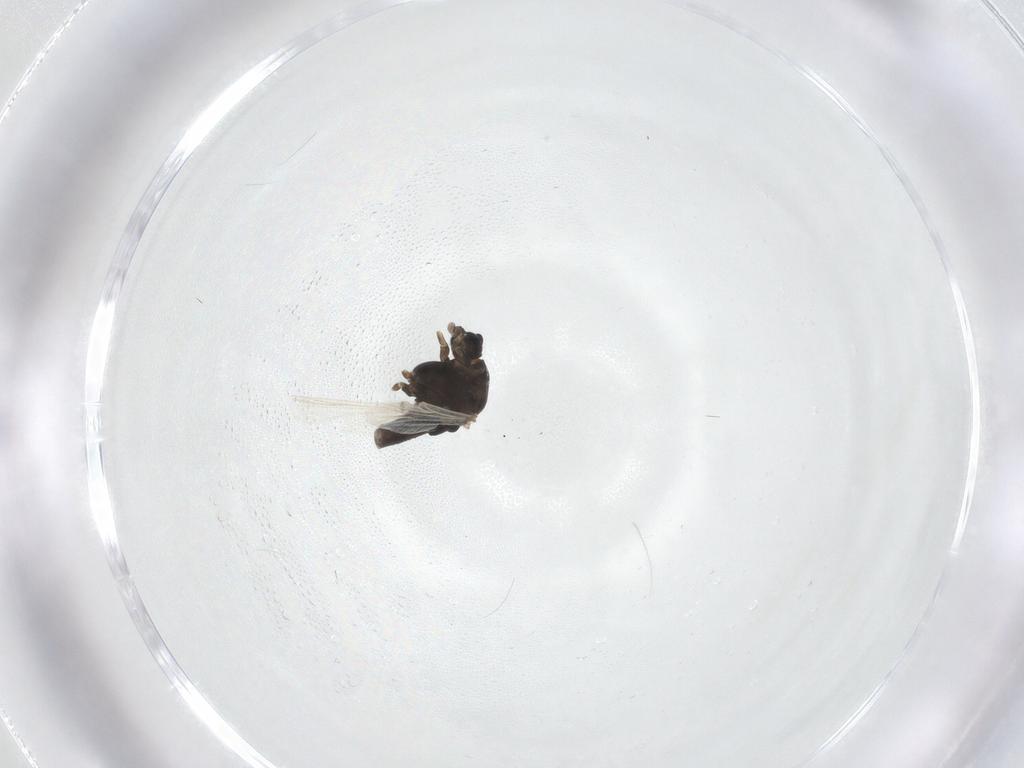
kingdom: Animalia
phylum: Arthropoda
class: Insecta
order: Diptera
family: Chironomidae
